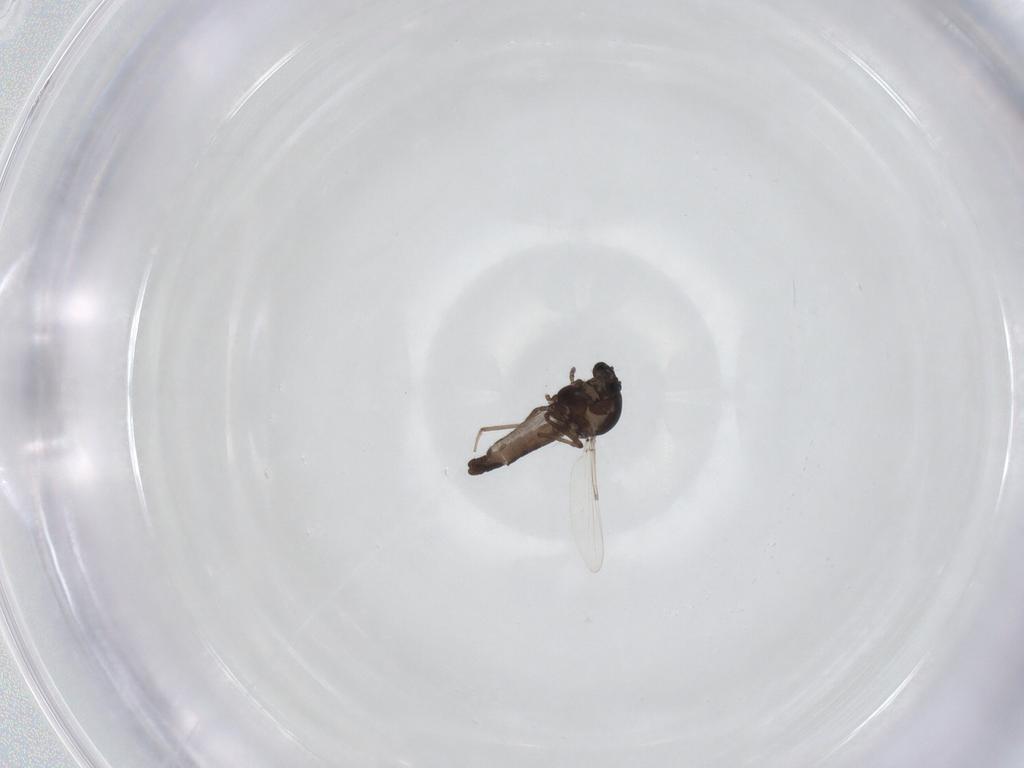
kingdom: Animalia
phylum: Arthropoda
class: Insecta
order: Diptera
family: Ceratopogonidae
